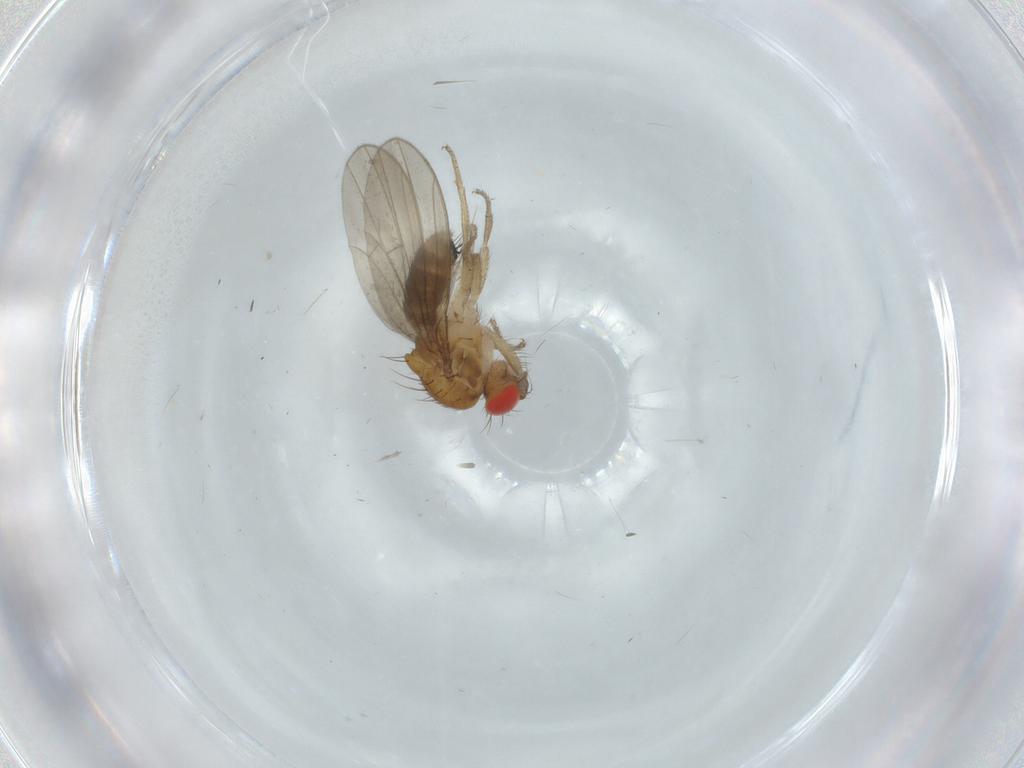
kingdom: Animalia
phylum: Arthropoda
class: Insecta
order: Diptera
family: Drosophilidae
